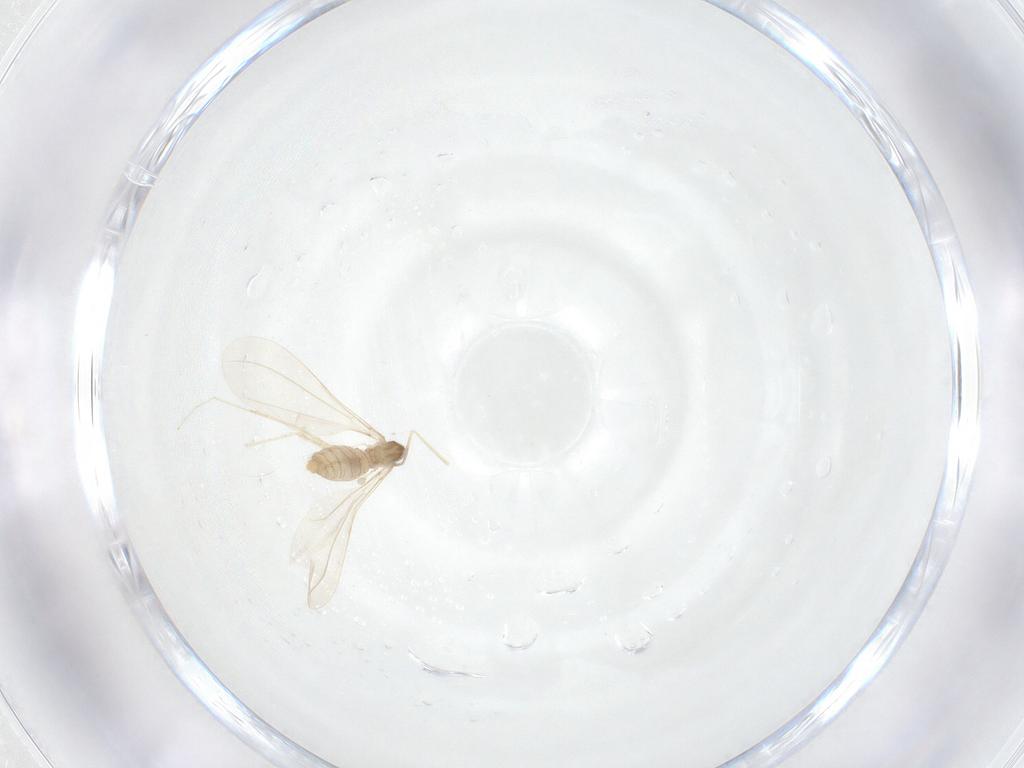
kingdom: Animalia
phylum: Arthropoda
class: Insecta
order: Diptera
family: Cecidomyiidae
